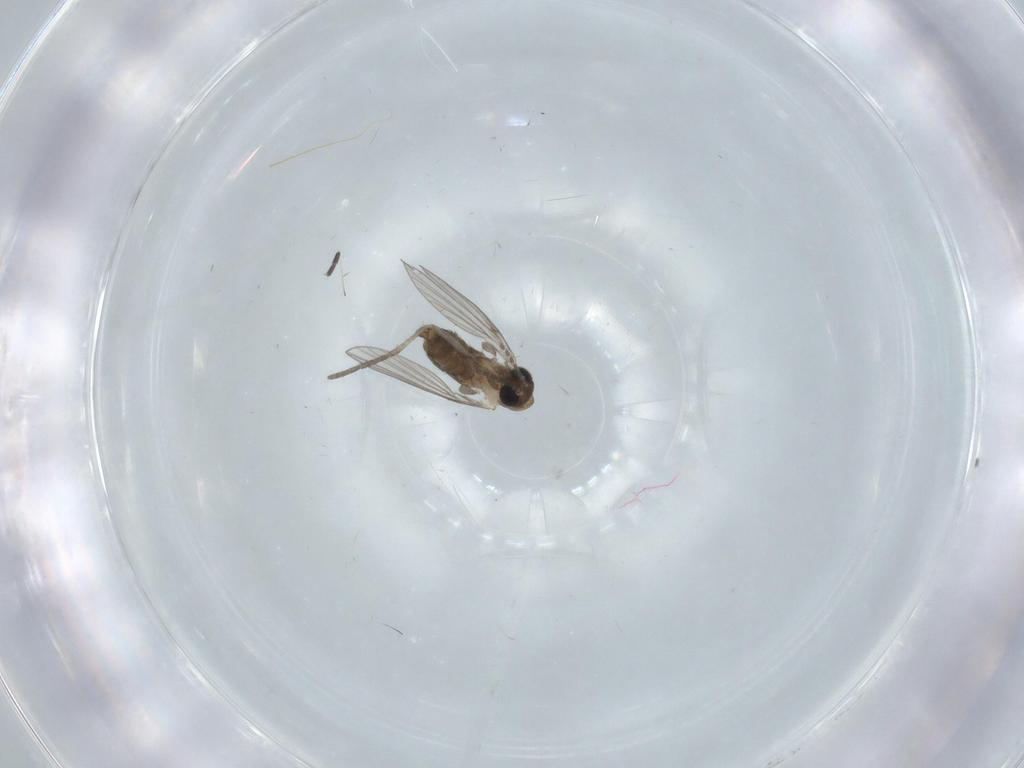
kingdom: Animalia
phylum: Arthropoda
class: Insecta
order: Diptera
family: Psychodidae
